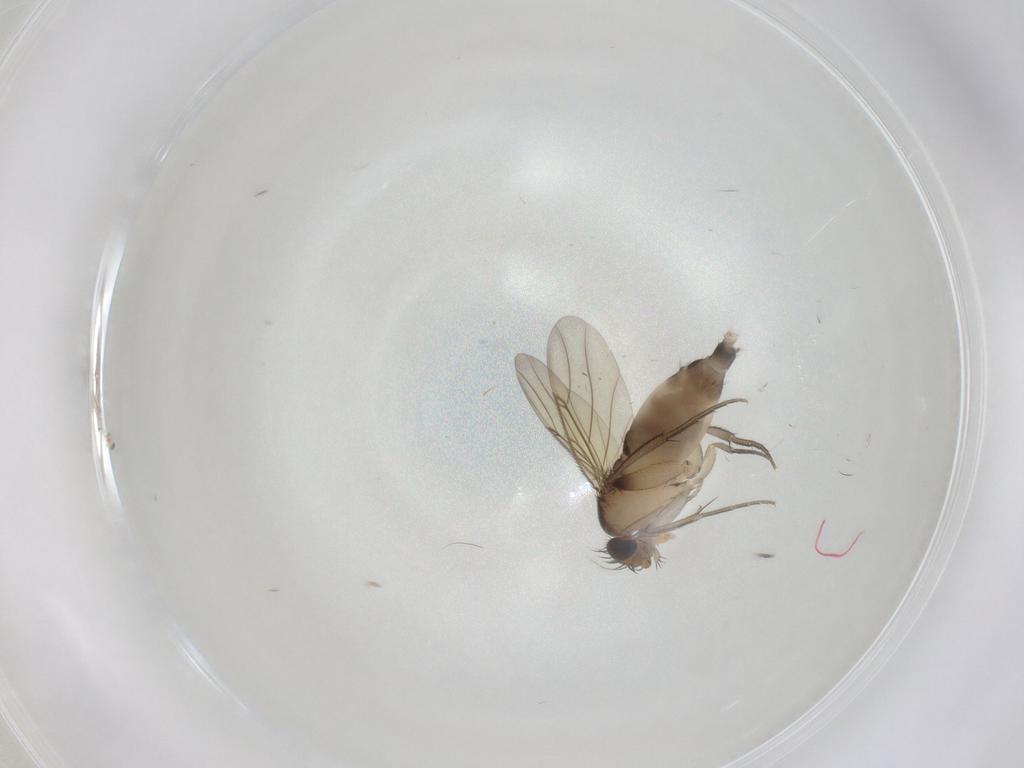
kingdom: Animalia
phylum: Arthropoda
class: Insecta
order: Diptera
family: Phoridae
